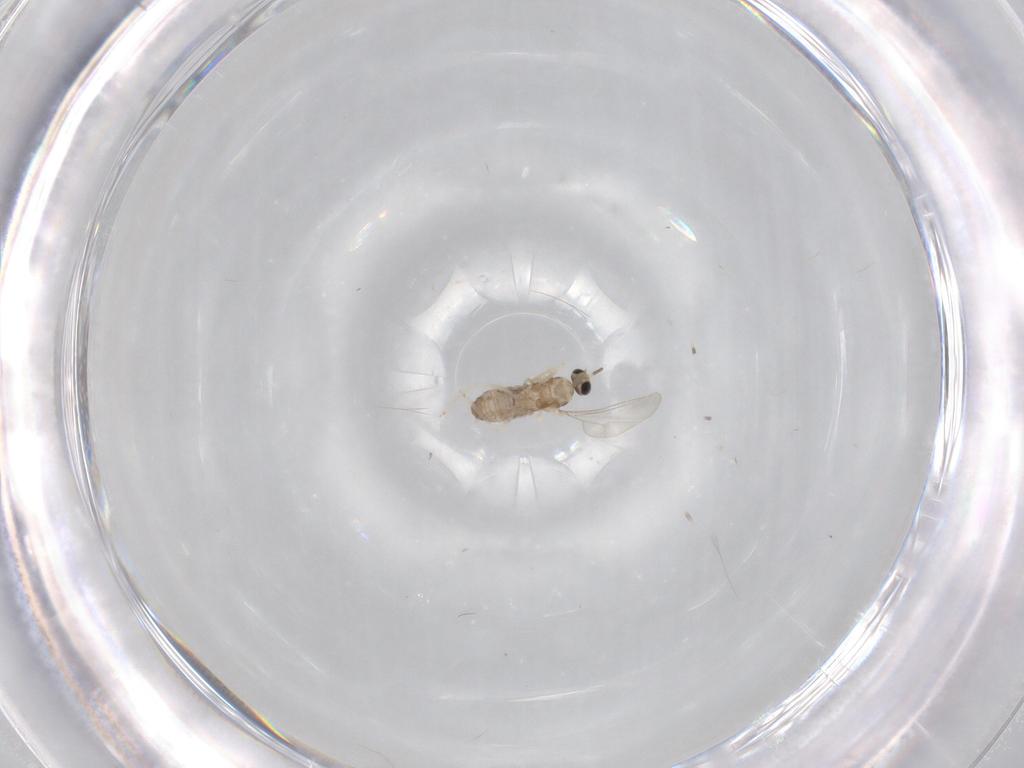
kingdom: Animalia
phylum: Arthropoda
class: Insecta
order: Diptera
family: Cecidomyiidae
